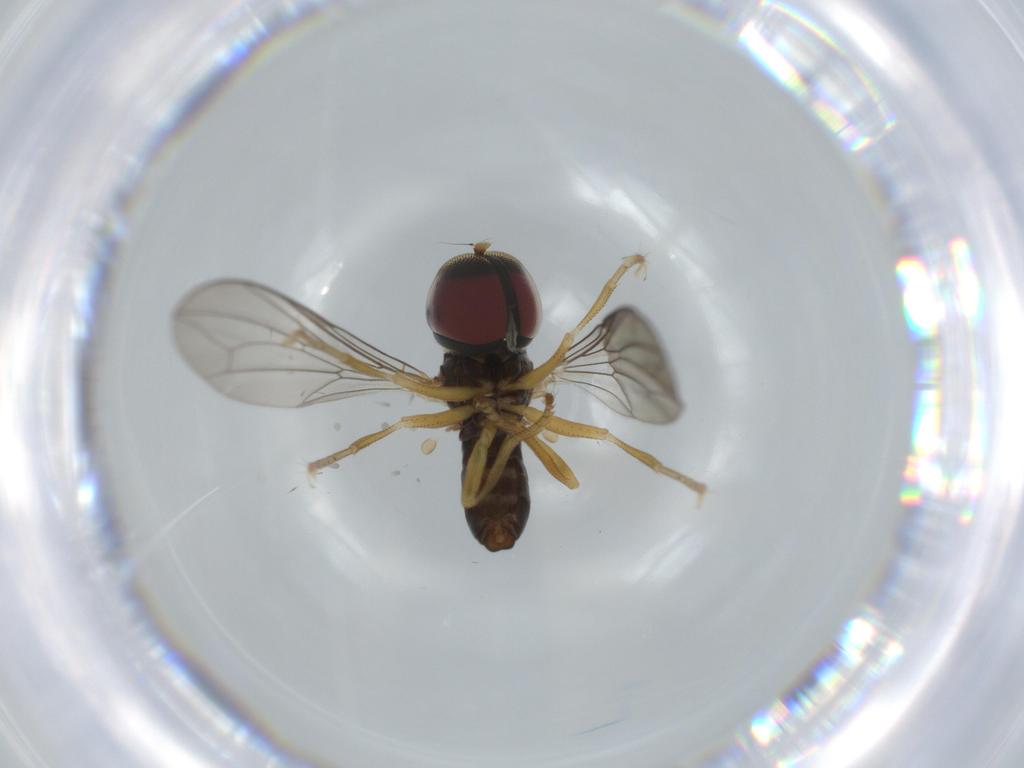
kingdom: Animalia
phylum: Arthropoda
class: Insecta
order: Diptera
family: Pipunculidae
